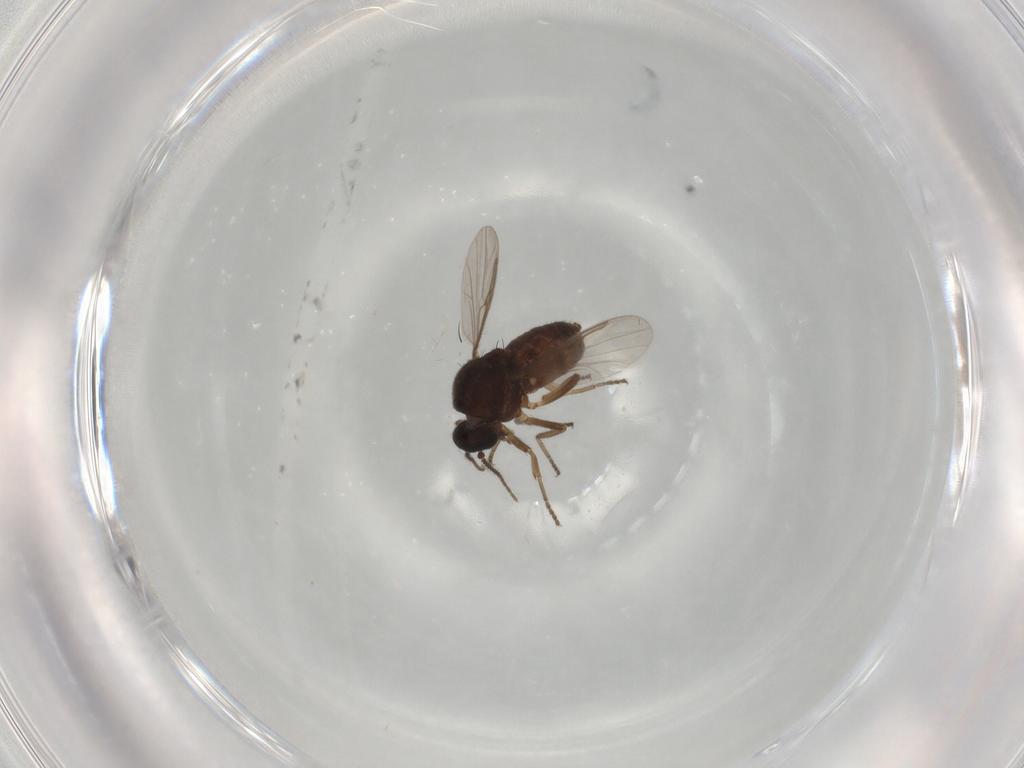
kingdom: Animalia
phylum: Arthropoda
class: Insecta
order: Diptera
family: Ceratopogonidae
